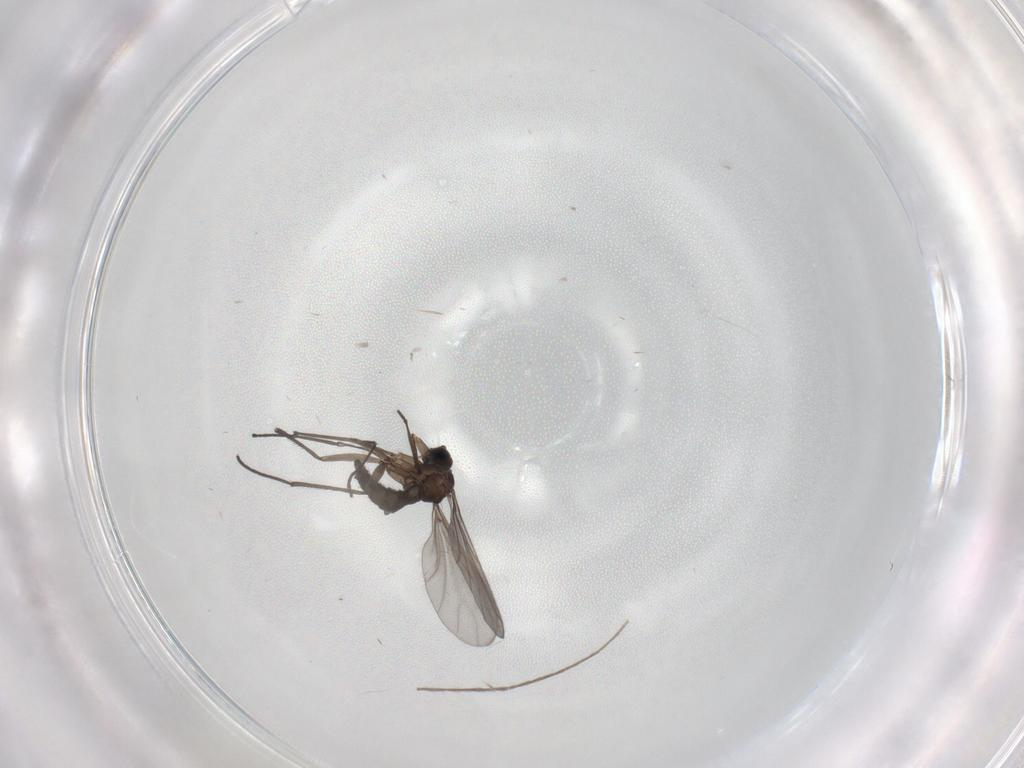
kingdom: Animalia
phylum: Arthropoda
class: Insecta
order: Diptera
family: Sciaridae
